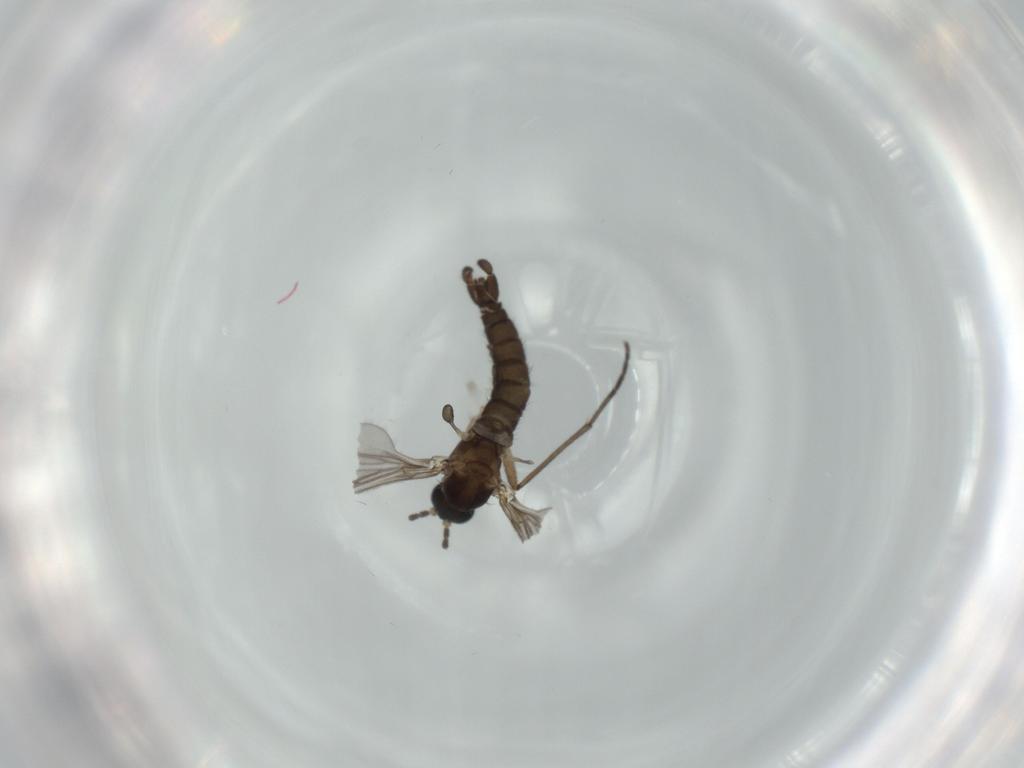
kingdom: Animalia
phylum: Arthropoda
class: Insecta
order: Diptera
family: Sciaridae
